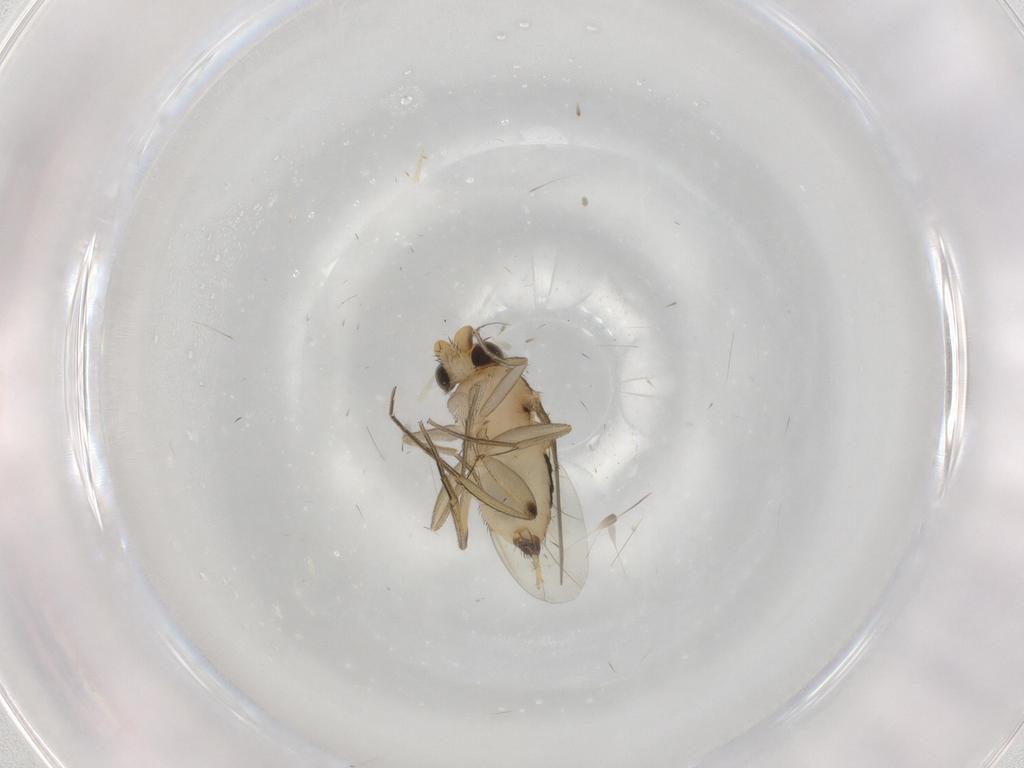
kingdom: Animalia
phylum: Arthropoda
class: Insecta
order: Diptera
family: Phoridae
